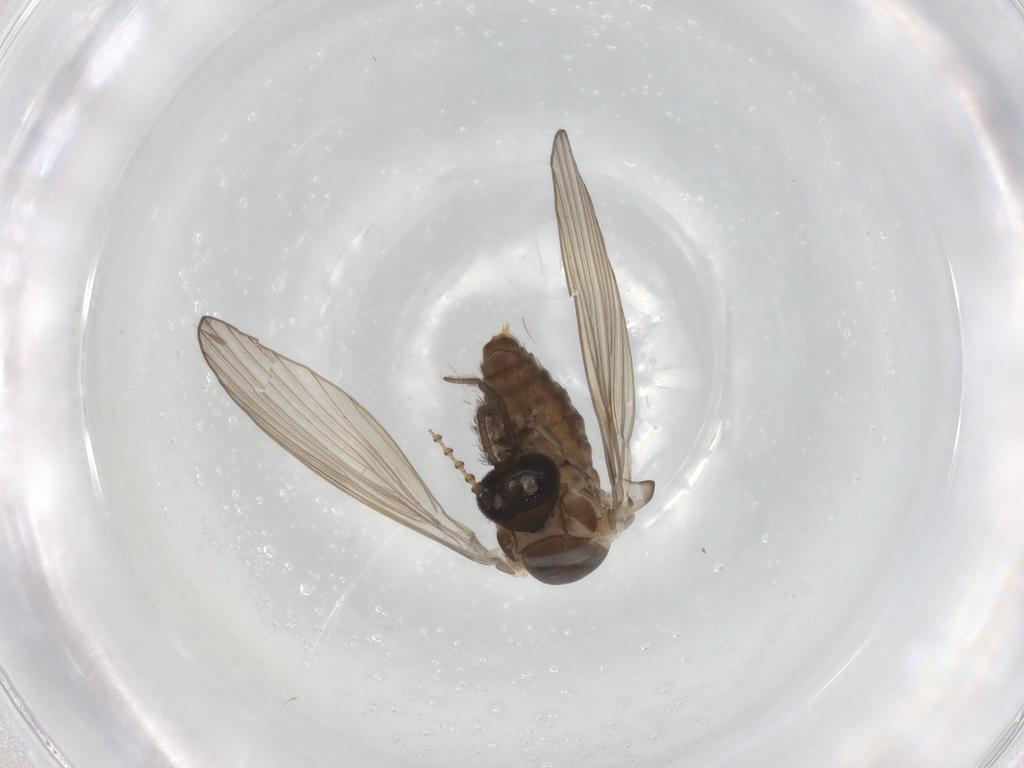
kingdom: Animalia
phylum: Arthropoda
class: Insecta
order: Diptera
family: Psychodidae
